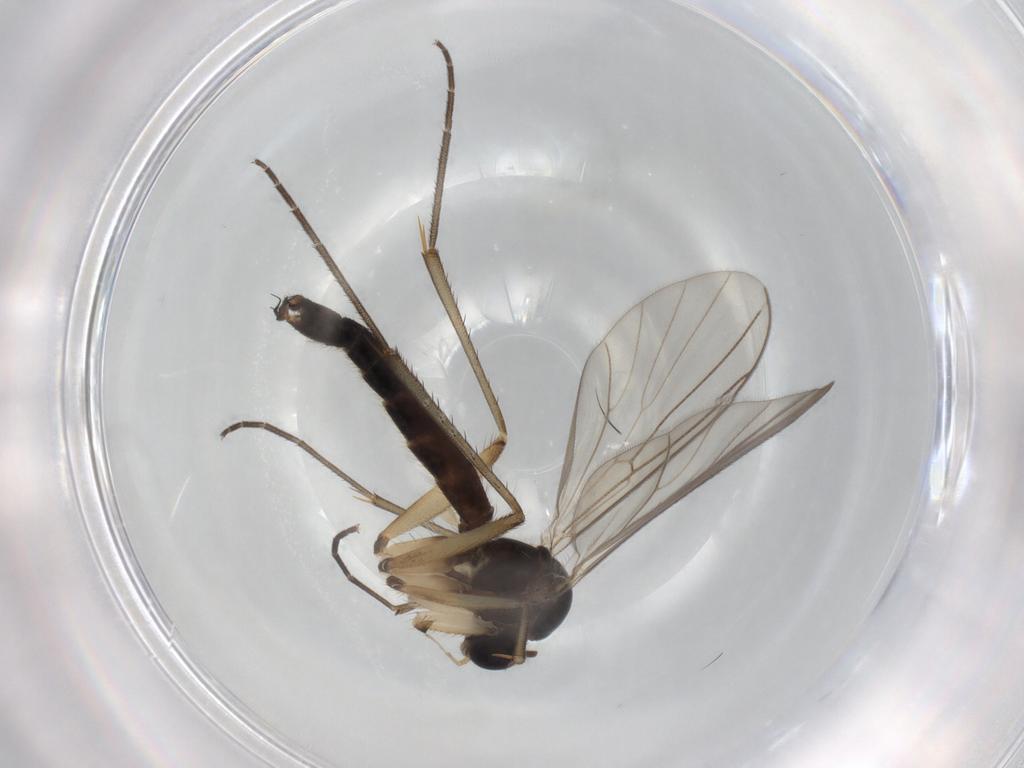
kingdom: Animalia
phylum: Arthropoda
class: Insecta
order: Diptera
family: Mycetophilidae
